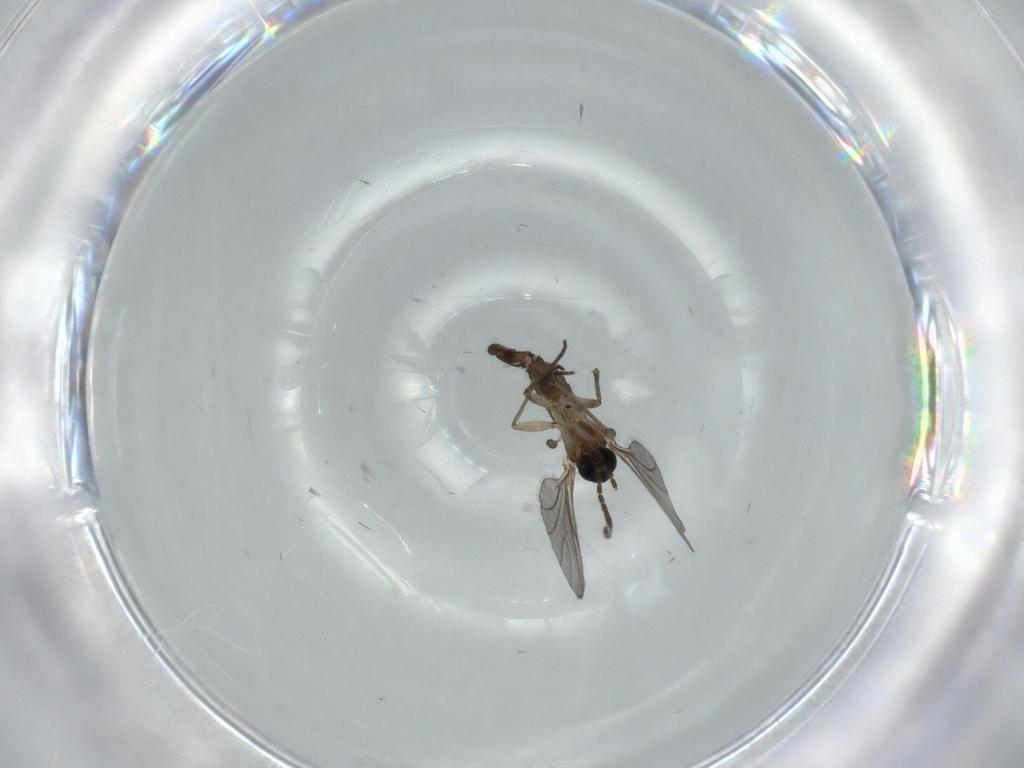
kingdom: Animalia
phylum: Arthropoda
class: Insecta
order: Diptera
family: Sciaridae
